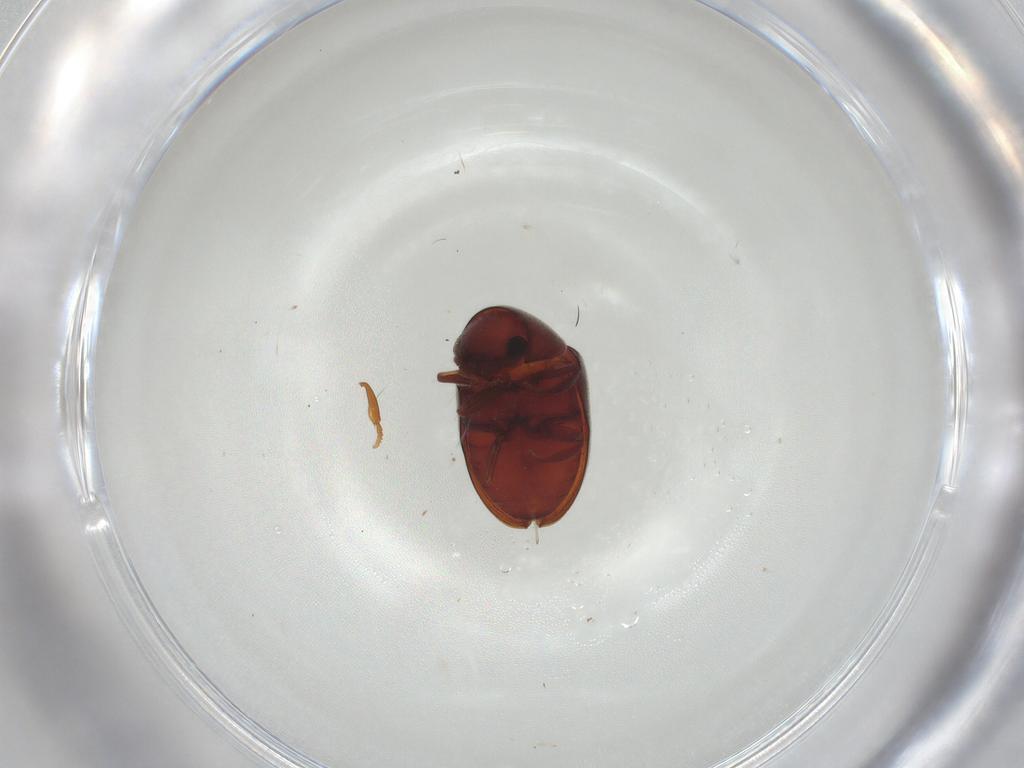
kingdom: Animalia
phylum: Arthropoda
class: Insecta
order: Coleoptera
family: Anobiidae
